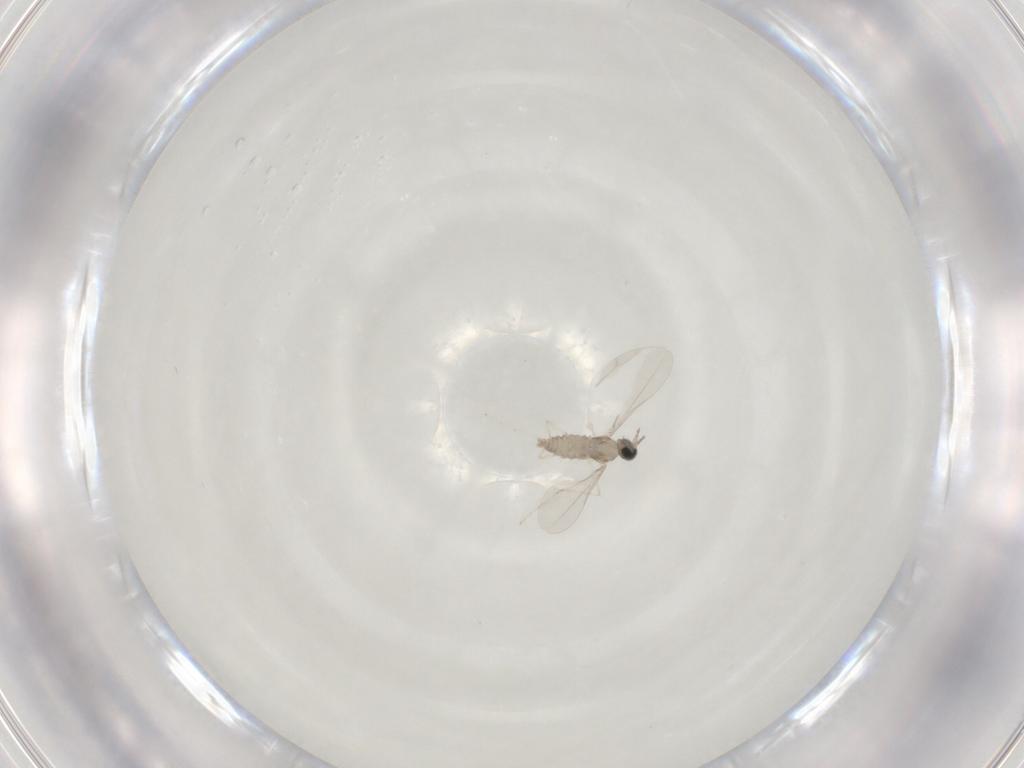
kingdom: Animalia
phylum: Arthropoda
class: Insecta
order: Diptera
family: Cecidomyiidae
